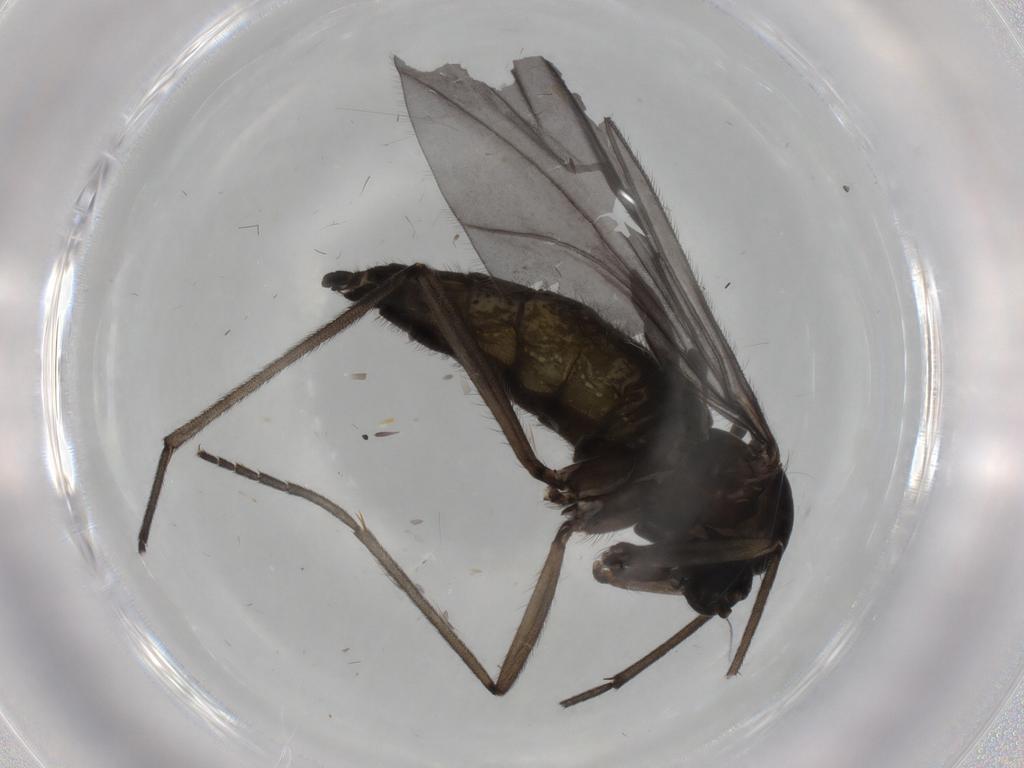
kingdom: Animalia
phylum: Arthropoda
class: Insecta
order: Diptera
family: Sciaridae
